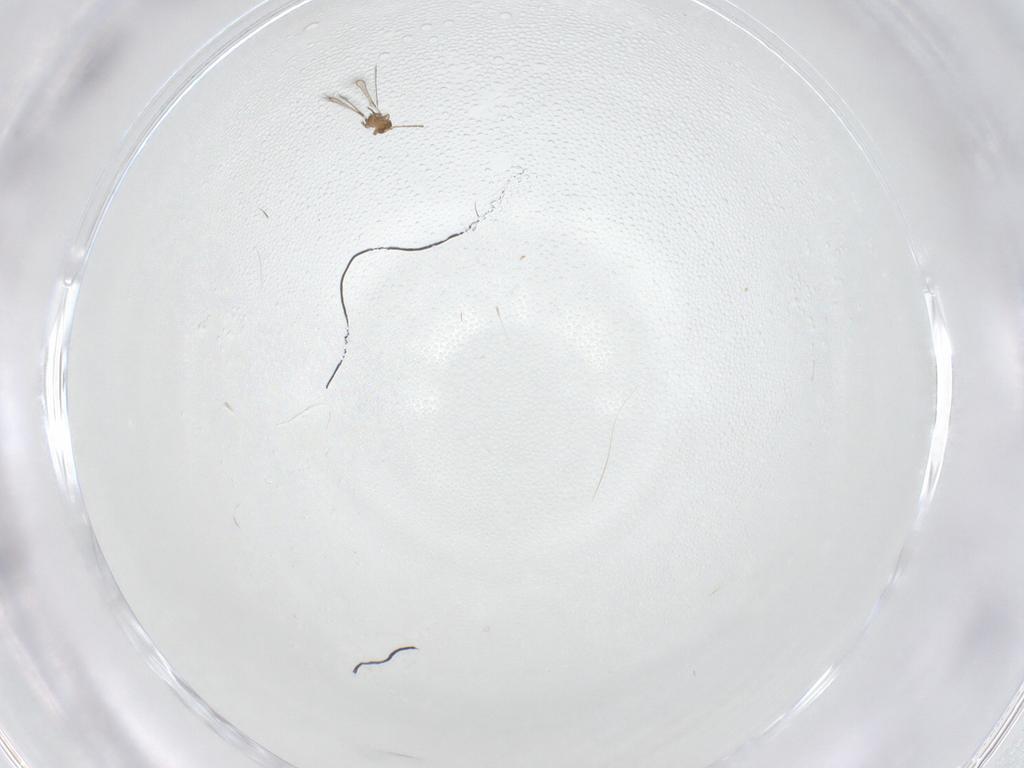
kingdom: Animalia
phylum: Arthropoda
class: Insecta
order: Diptera
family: Dolichopodidae
